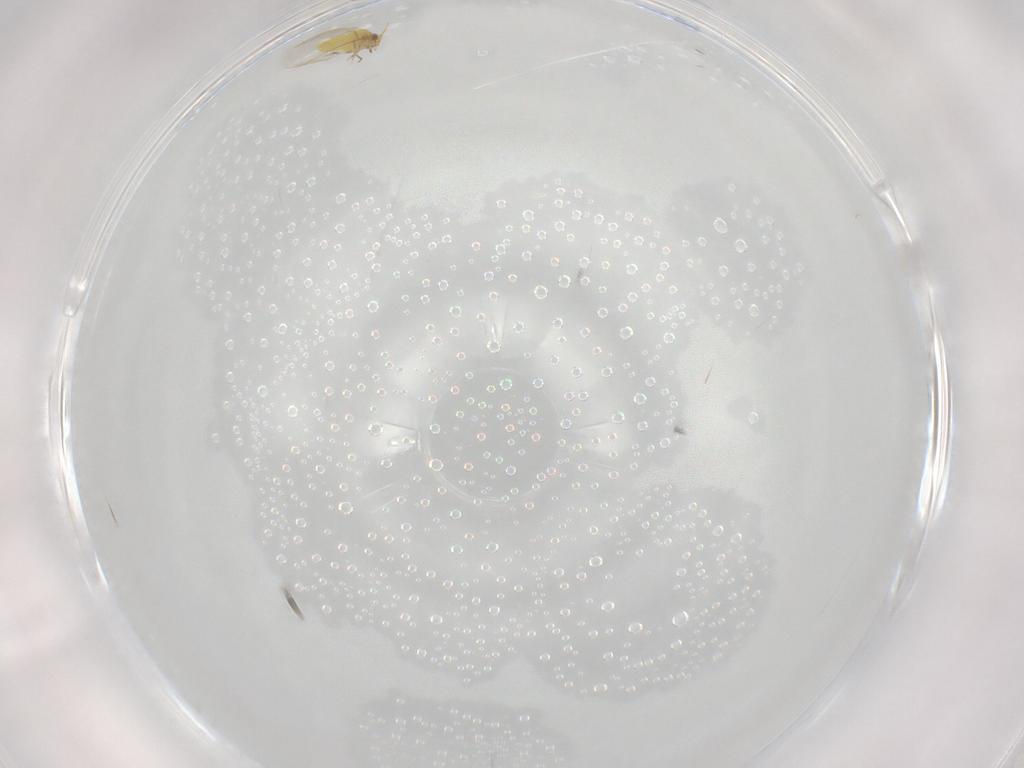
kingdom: Animalia
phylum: Arthropoda
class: Insecta
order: Hemiptera
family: Aleyrodidae
